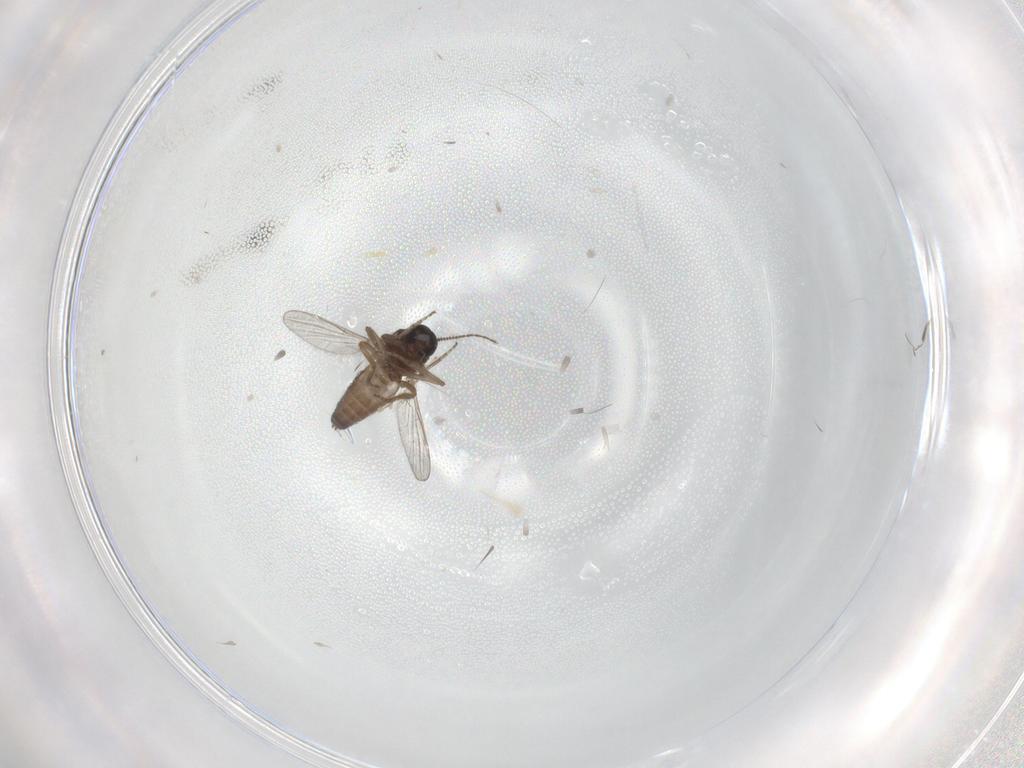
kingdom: Animalia
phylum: Arthropoda
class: Insecta
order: Diptera
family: Ceratopogonidae
